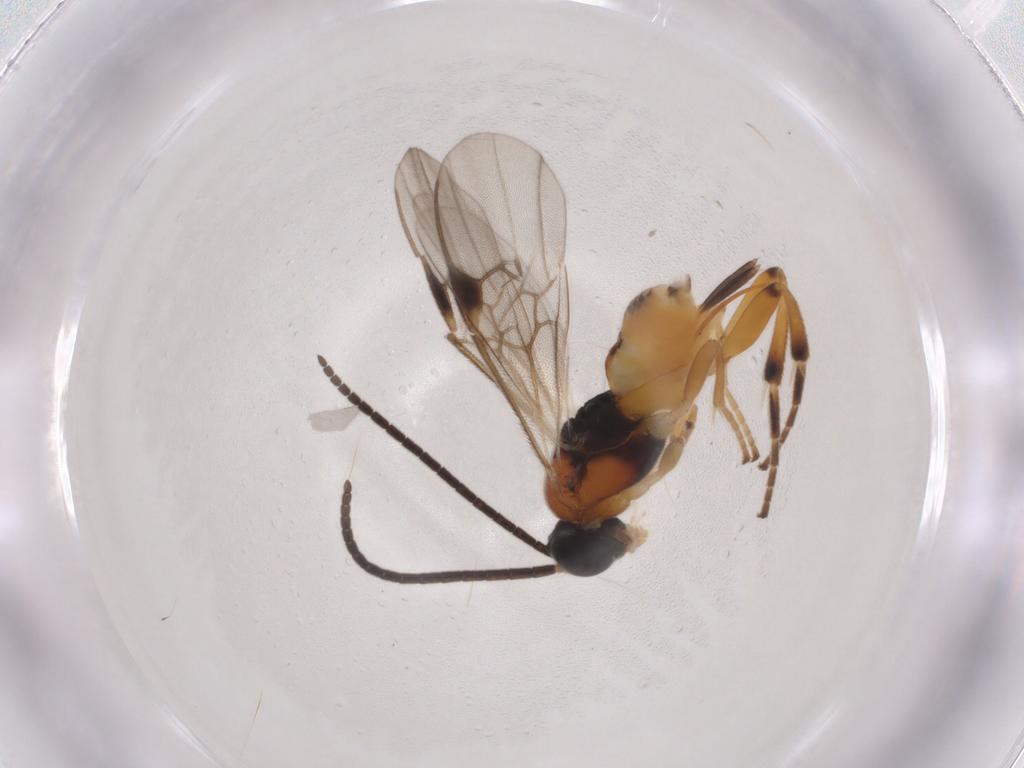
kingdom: Animalia
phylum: Arthropoda
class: Insecta
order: Hymenoptera
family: Braconidae
